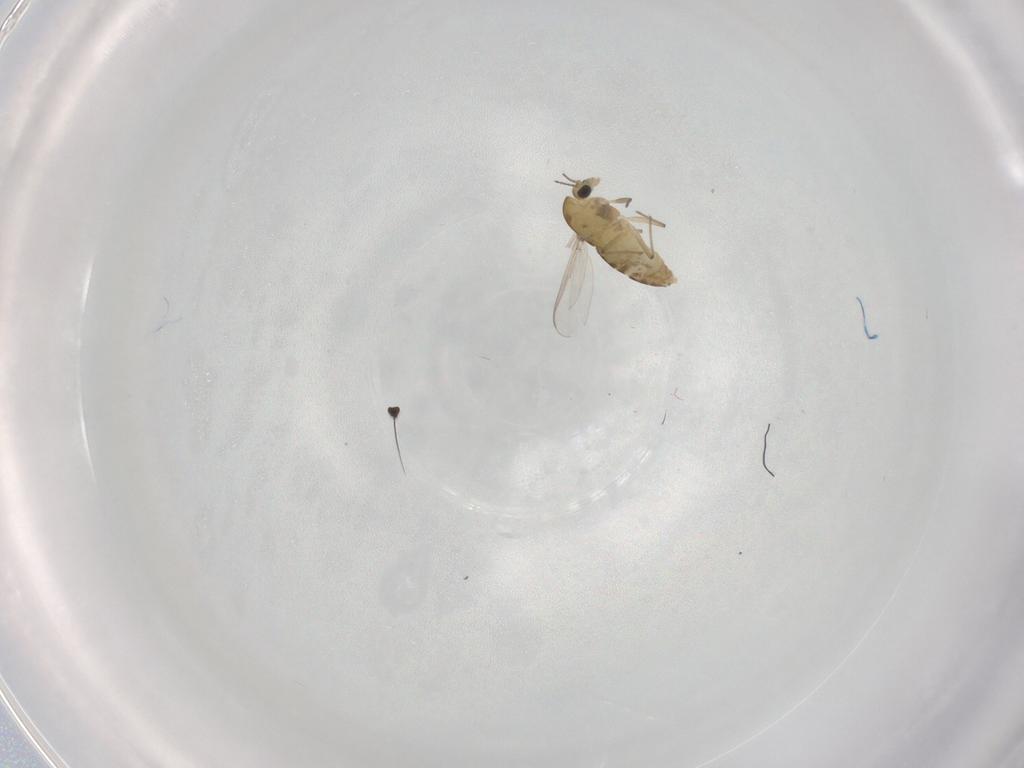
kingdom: Animalia
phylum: Arthropoda
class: Insecta
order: Diptera
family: Chironomidae
